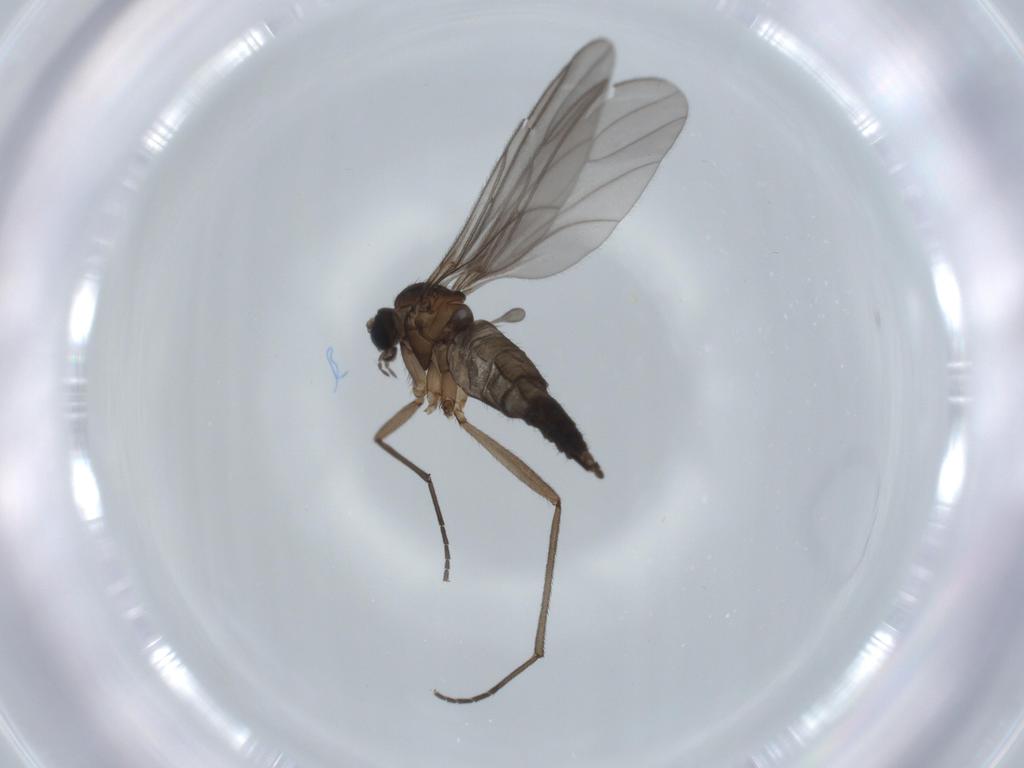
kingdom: Animalia
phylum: Arthropoda
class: Insecta
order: Diptera
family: Sciaridae
